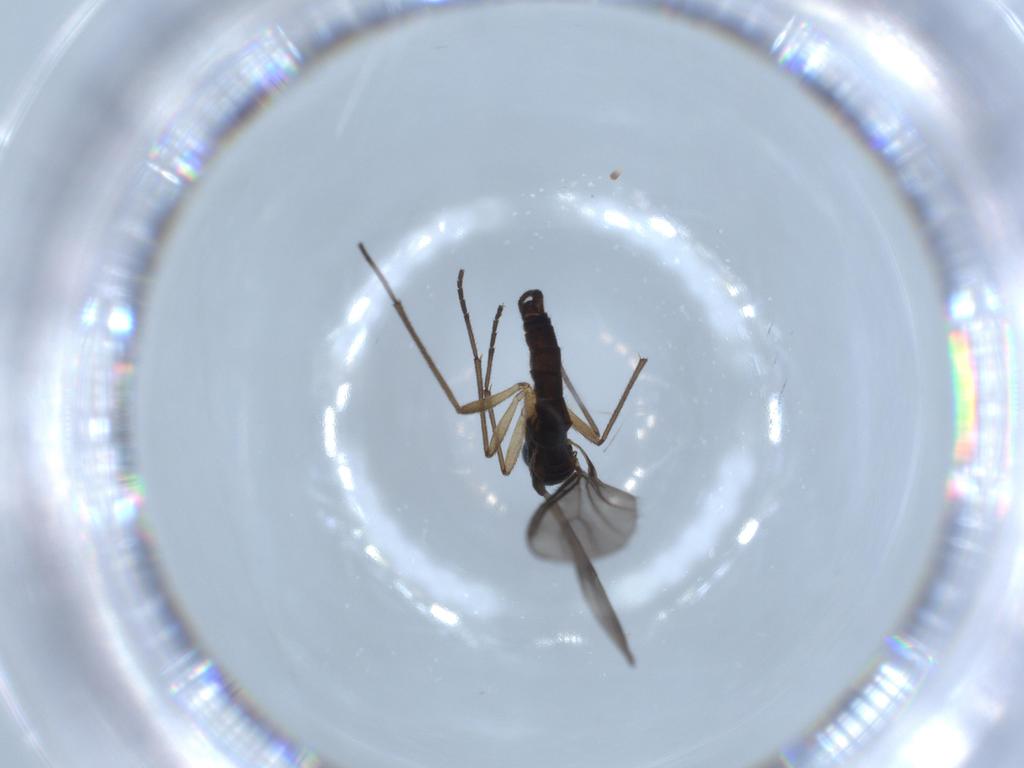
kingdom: Animalia
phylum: Arthropoda
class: Insecta
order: Diptera
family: Sciaridae
